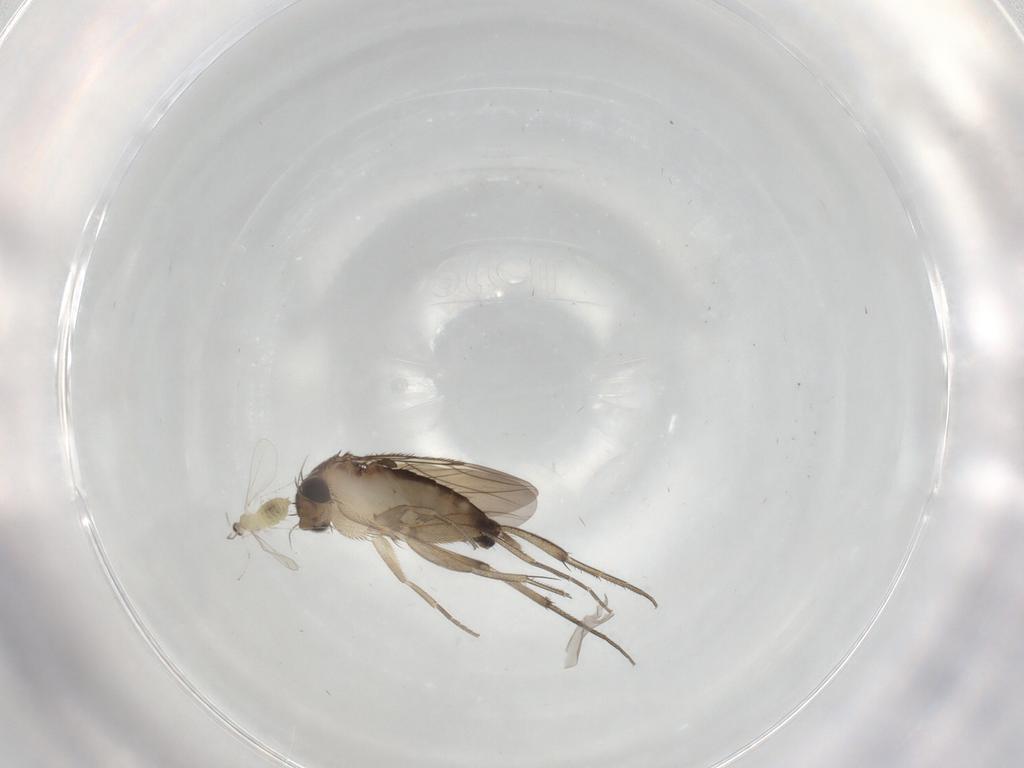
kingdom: Animalia
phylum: Arthropoda
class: Insecta
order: Diptera
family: Phoridae
